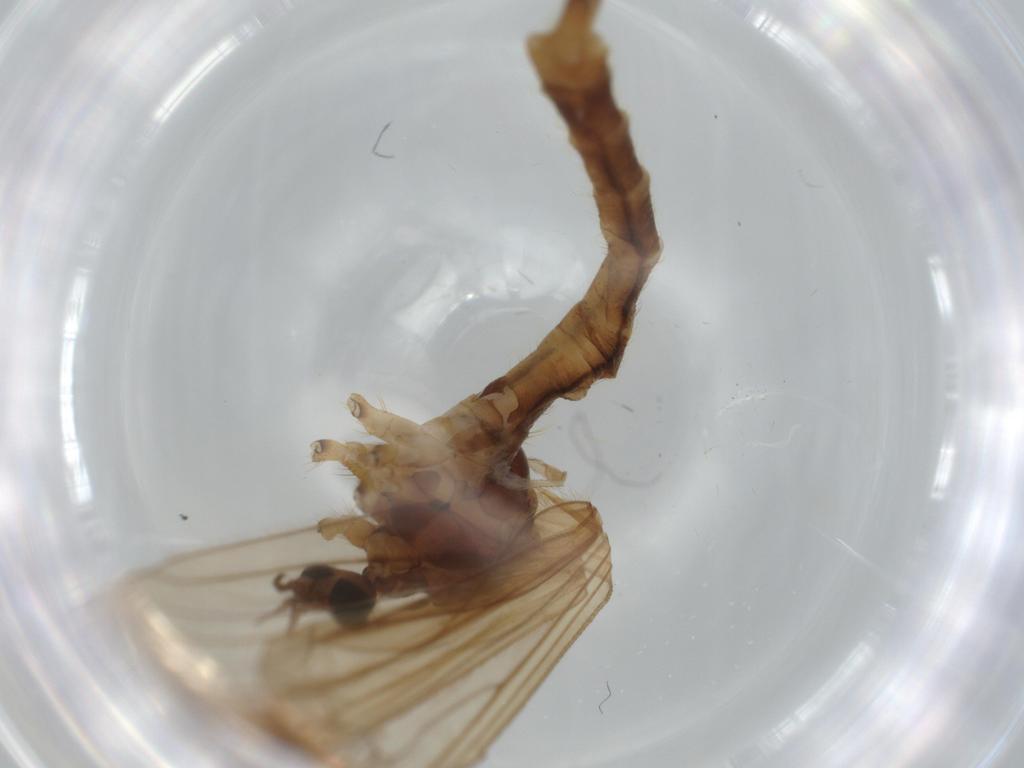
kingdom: Animalia
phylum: Arthropoda
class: Insecta
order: Diptera
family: Limoniidae
